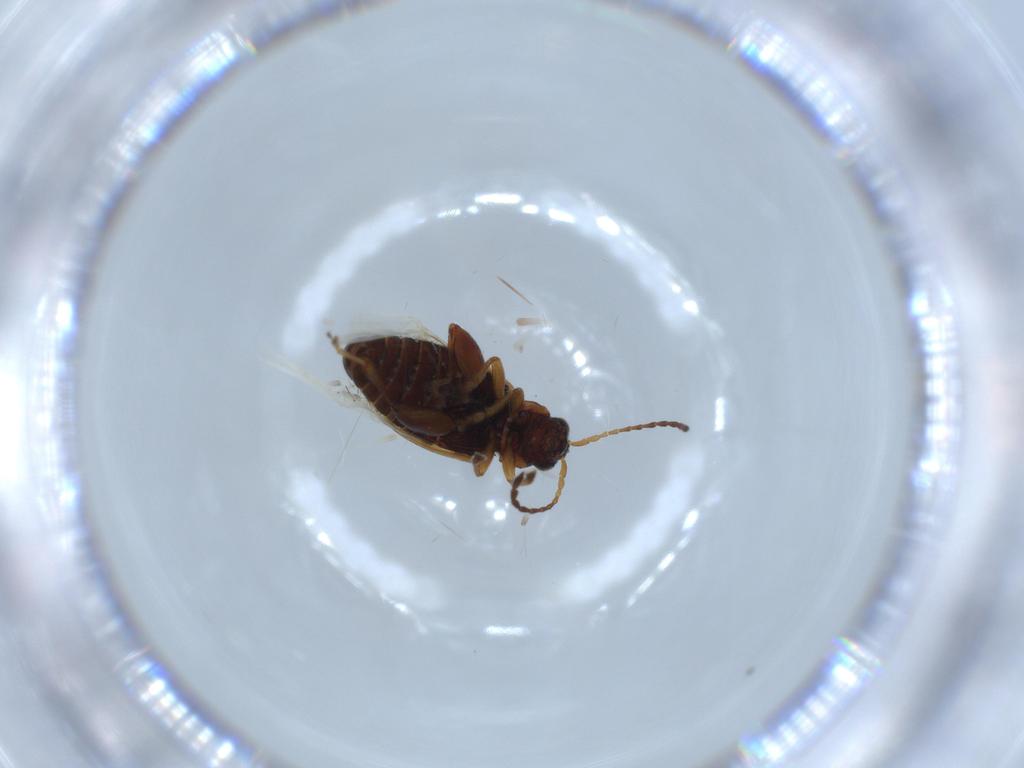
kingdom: Animalia
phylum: Arthropoda
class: Insecta
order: Coleoptera
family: Chrysomelidae
